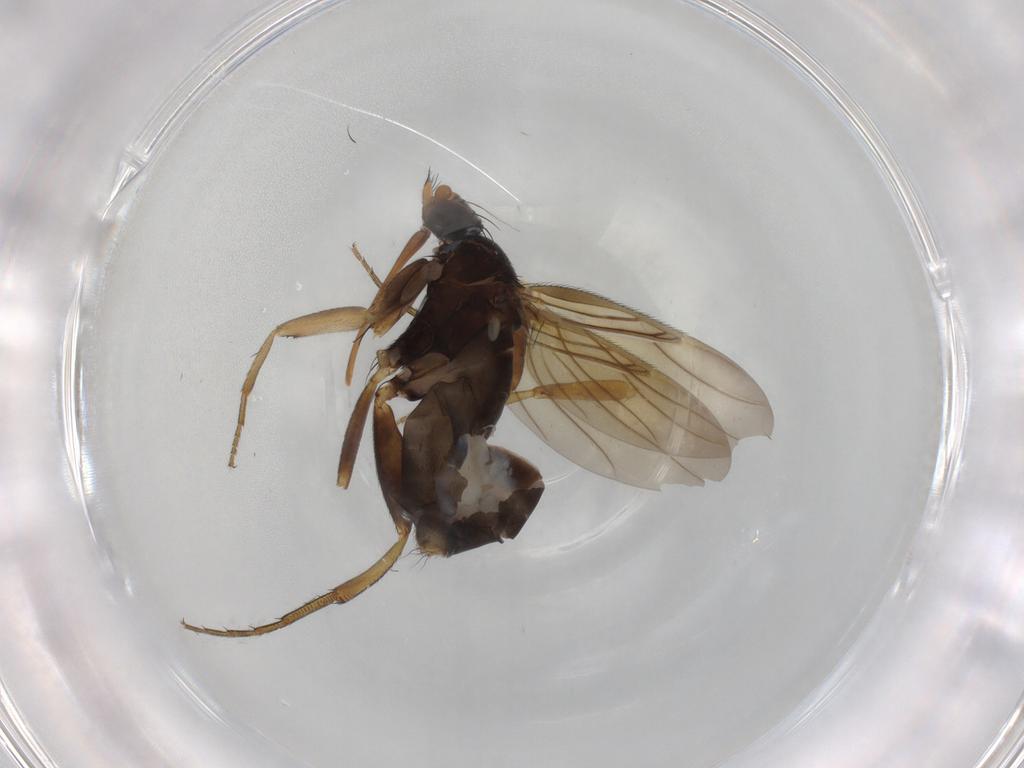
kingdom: Animalia
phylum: Arthropoda
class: Insecta
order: Diptera
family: Phoridae
